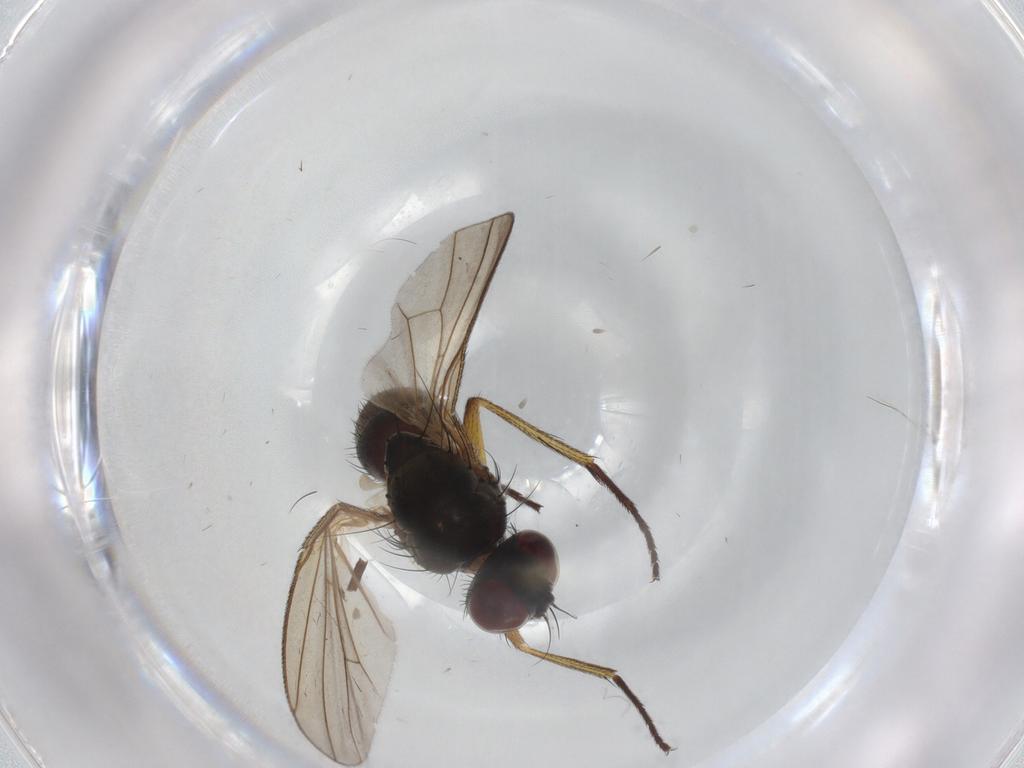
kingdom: Animalia
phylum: Arthropoda
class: Insecta
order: Diptera
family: Muscidae
